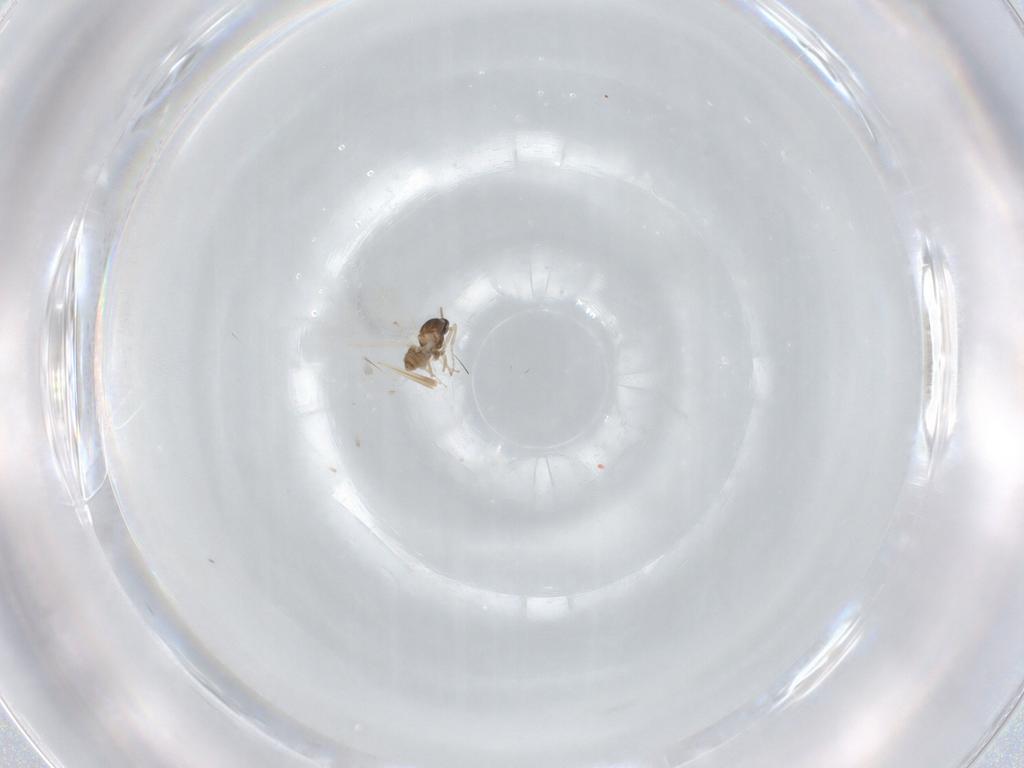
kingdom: Animalia
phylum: Arthropoda
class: Insecta
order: Diptera
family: Cecidomyiidae
